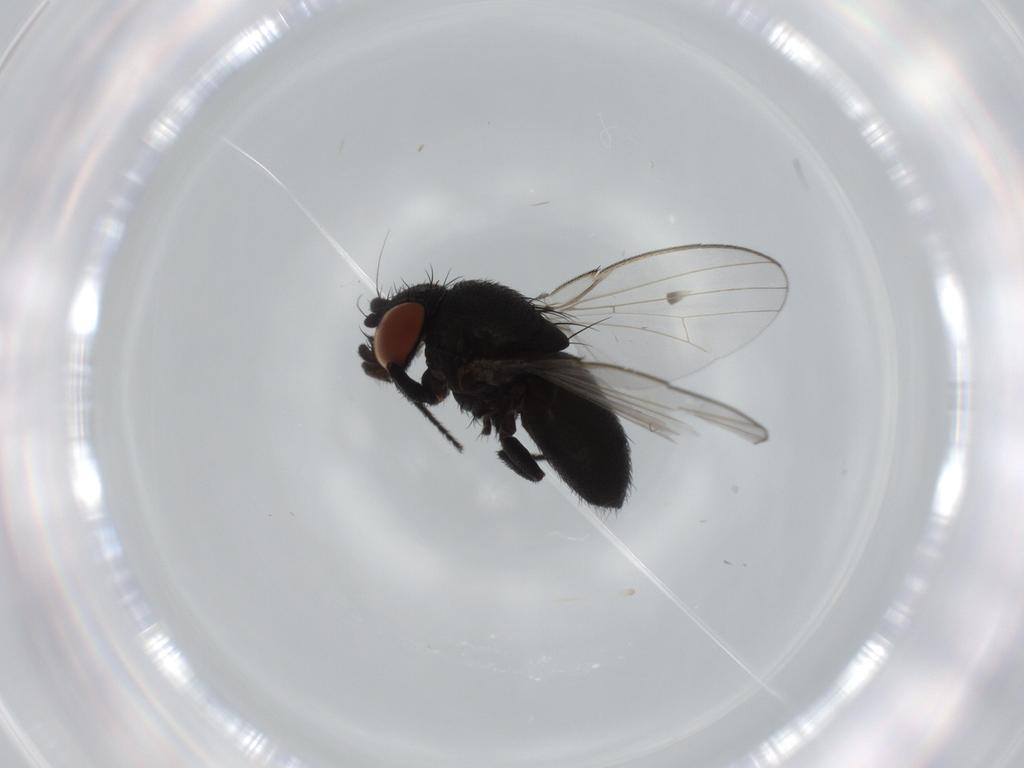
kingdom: Animalia
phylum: Arthropoda
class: Insecta
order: Diptera
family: Milichiidae
